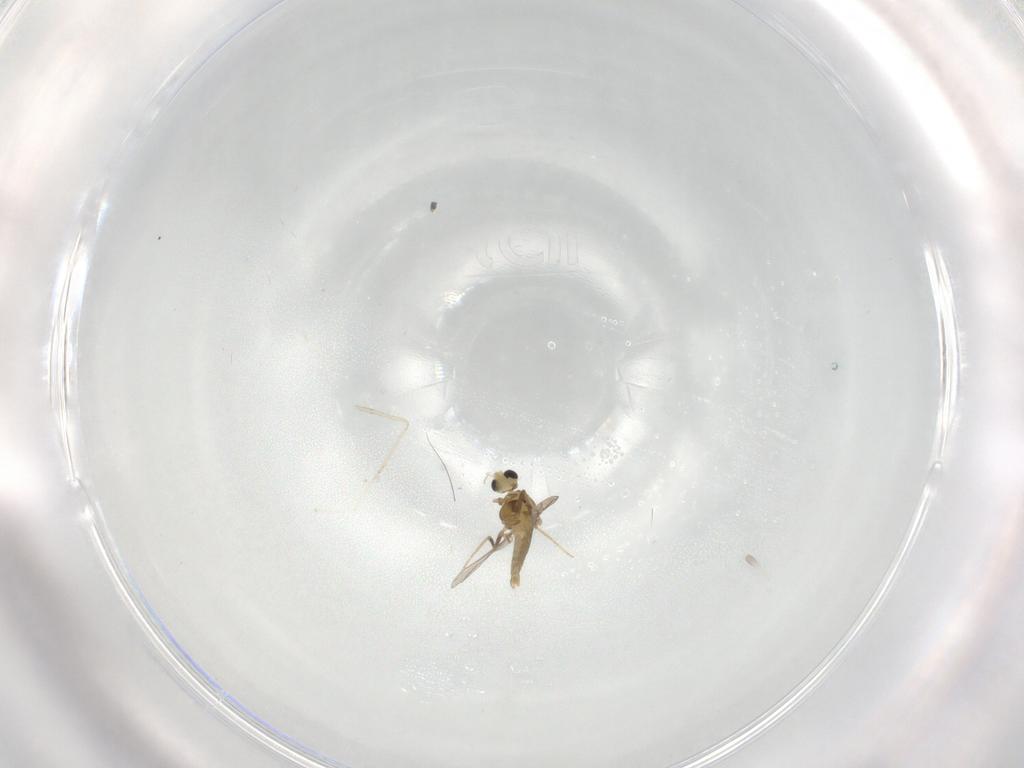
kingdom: Animalia
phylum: Arthropoda
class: Insecta
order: Diptera
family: Chironomidae
